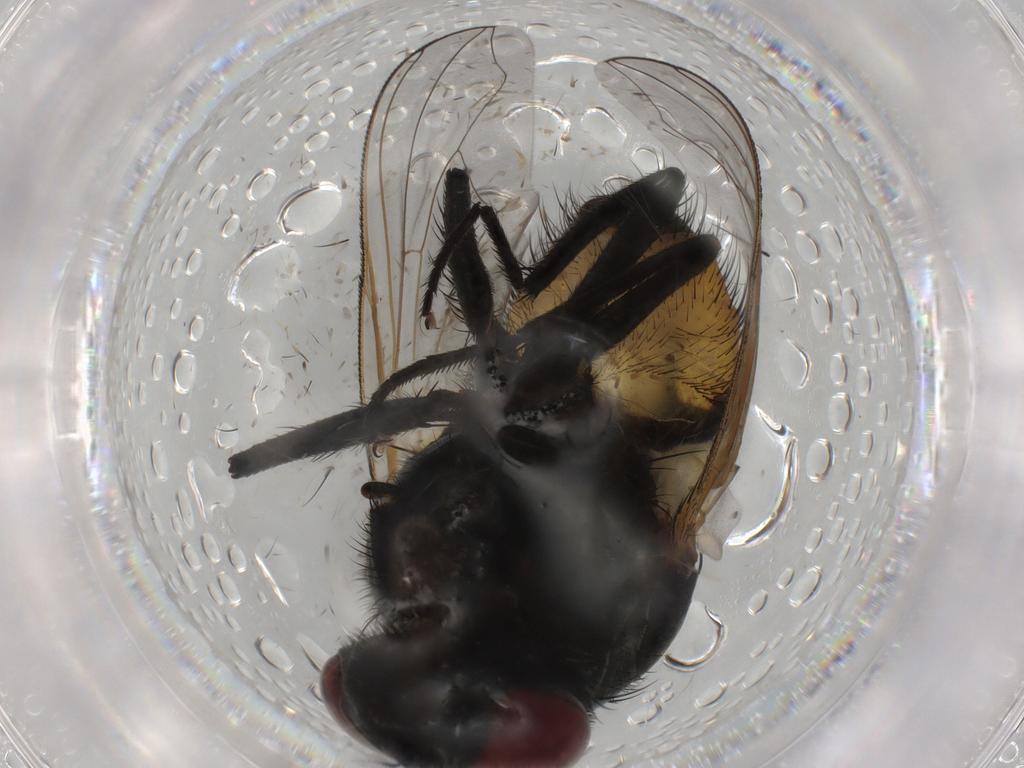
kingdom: Animalia
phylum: Arthropoda
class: Insecta
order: Diptera
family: Muscidae
